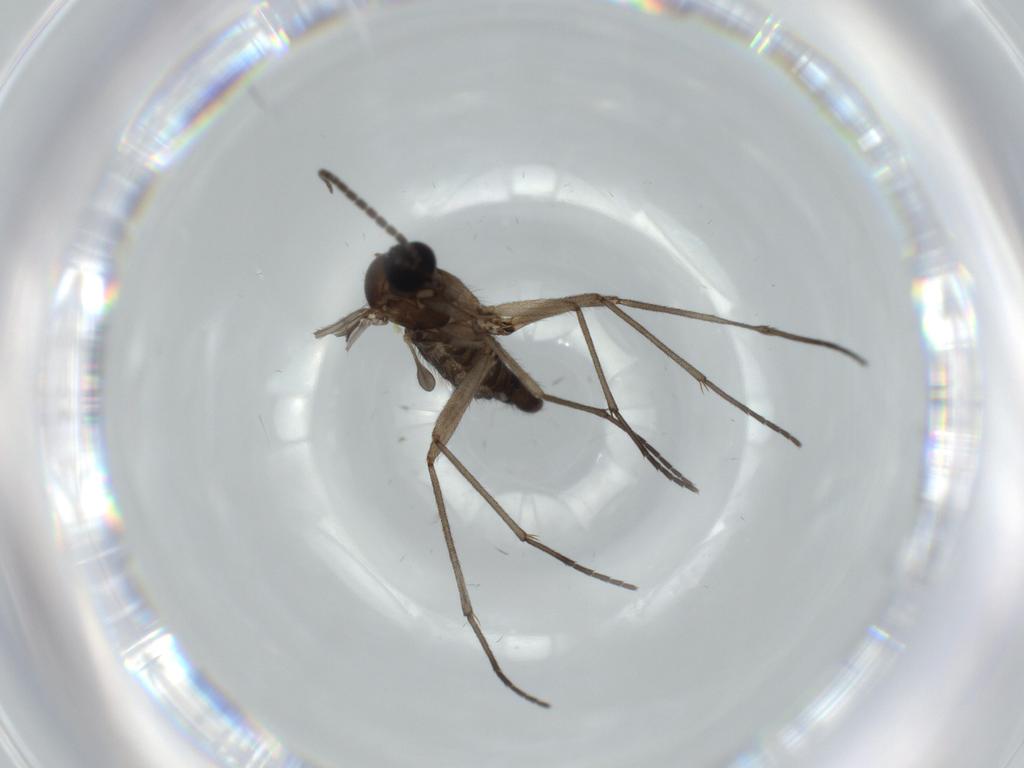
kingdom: Animalia
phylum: Arthropoda
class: Insecta
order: Diptera
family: Sciaridae
